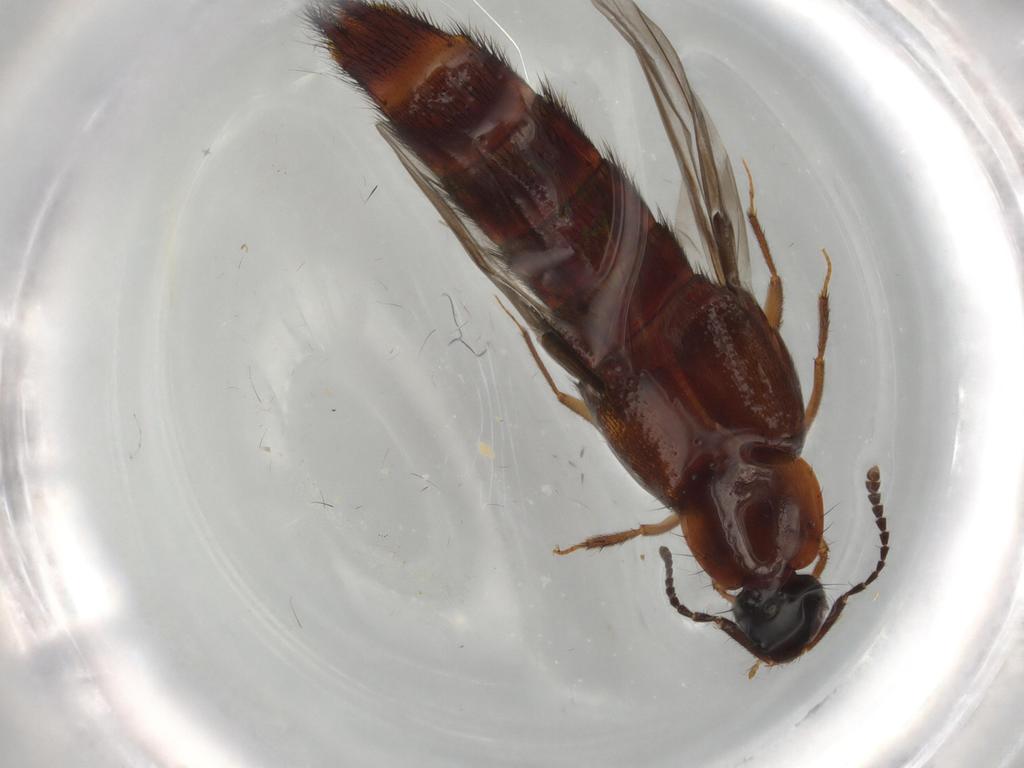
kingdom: Animalia
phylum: Arthropoda
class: Insecta
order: Coleoptera
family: Staphylinidae
